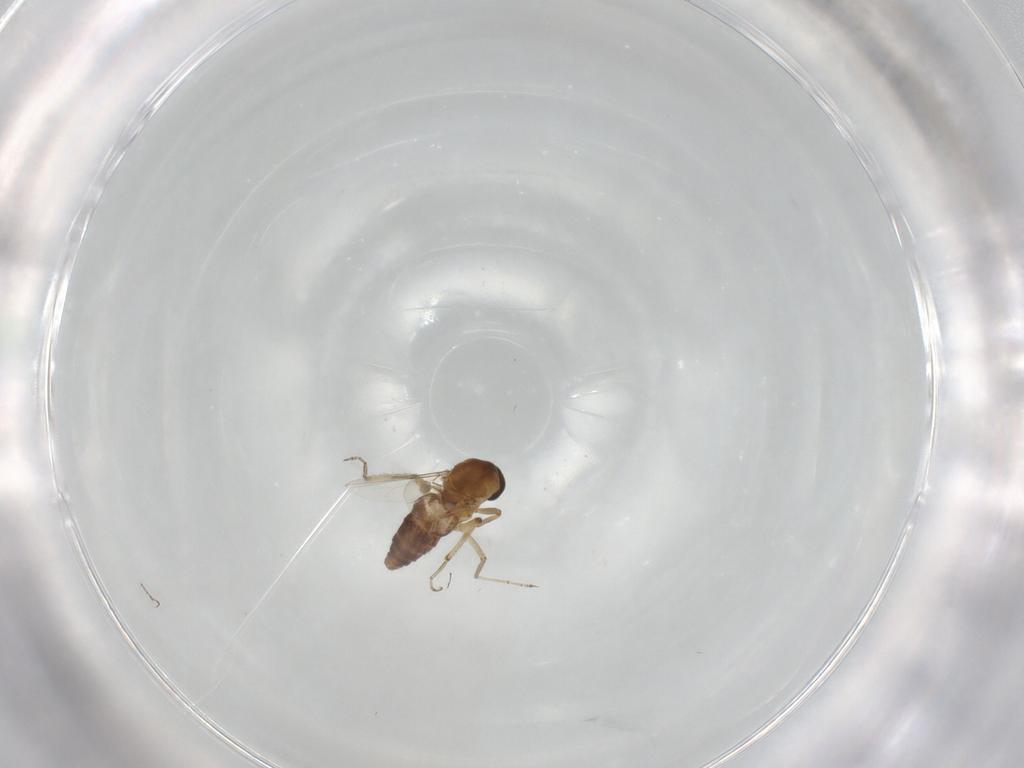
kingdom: Animalia
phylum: Arthropoda
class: Insecta
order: Diptera
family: Ceratopogonidae
